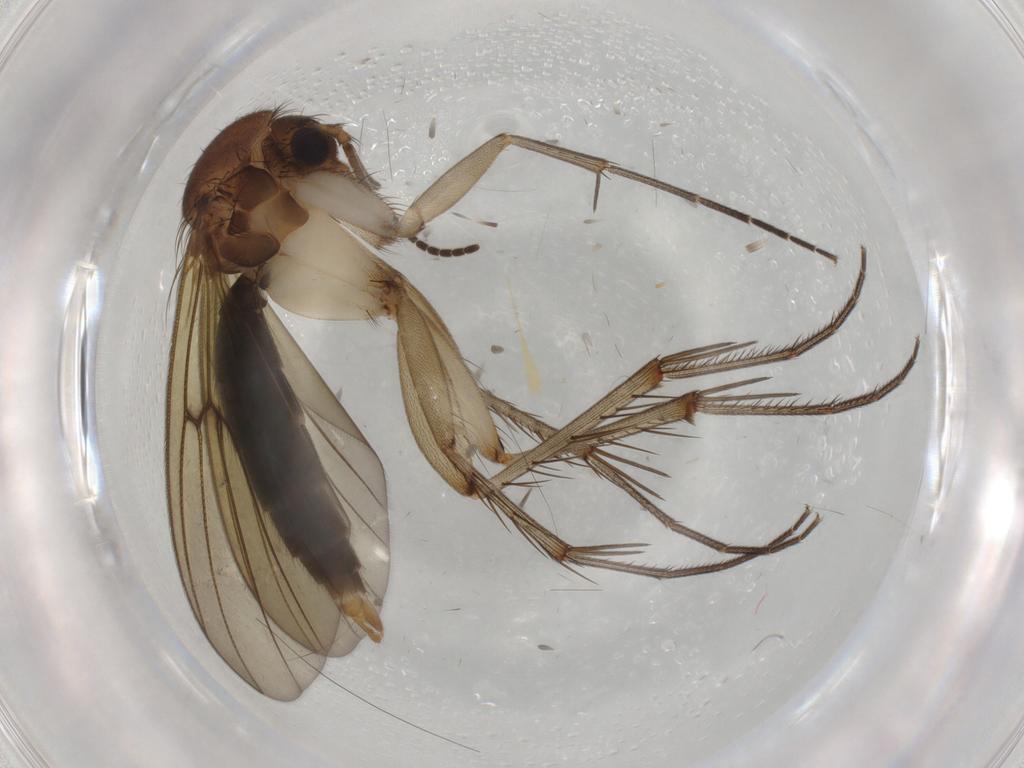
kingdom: Animalia
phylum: Arthropoda
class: Insecta
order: Diptera
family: Mycetophilidae
